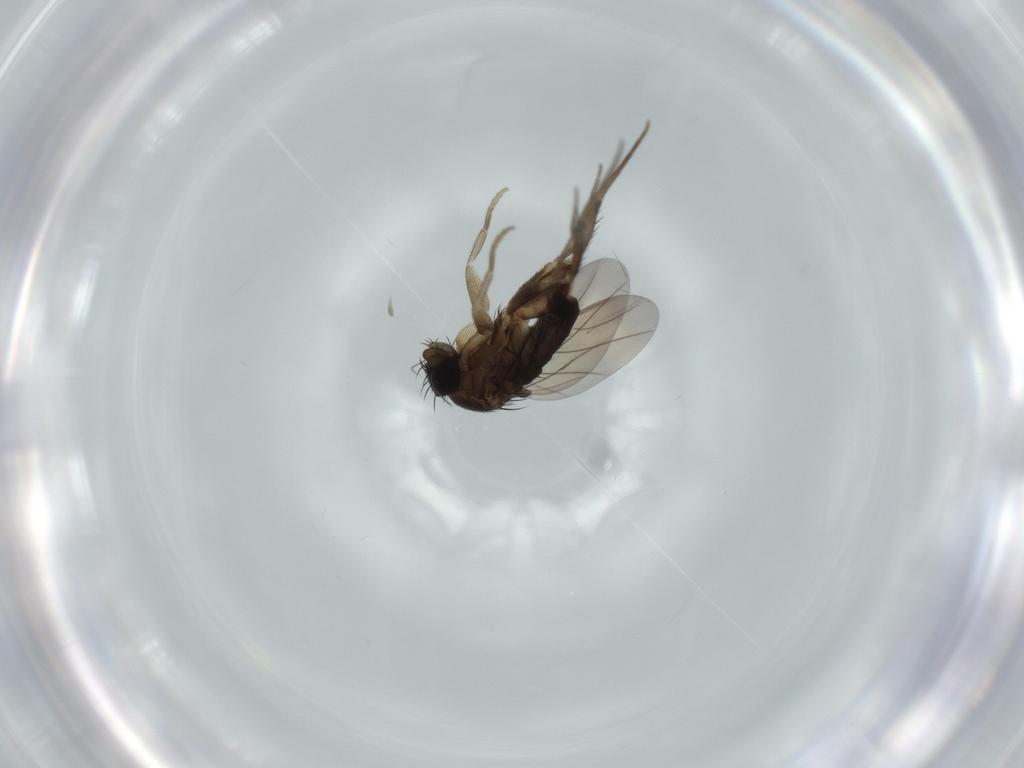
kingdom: Animalia
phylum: Arthropoda
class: Insecta
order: Diptera
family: Phoridae
